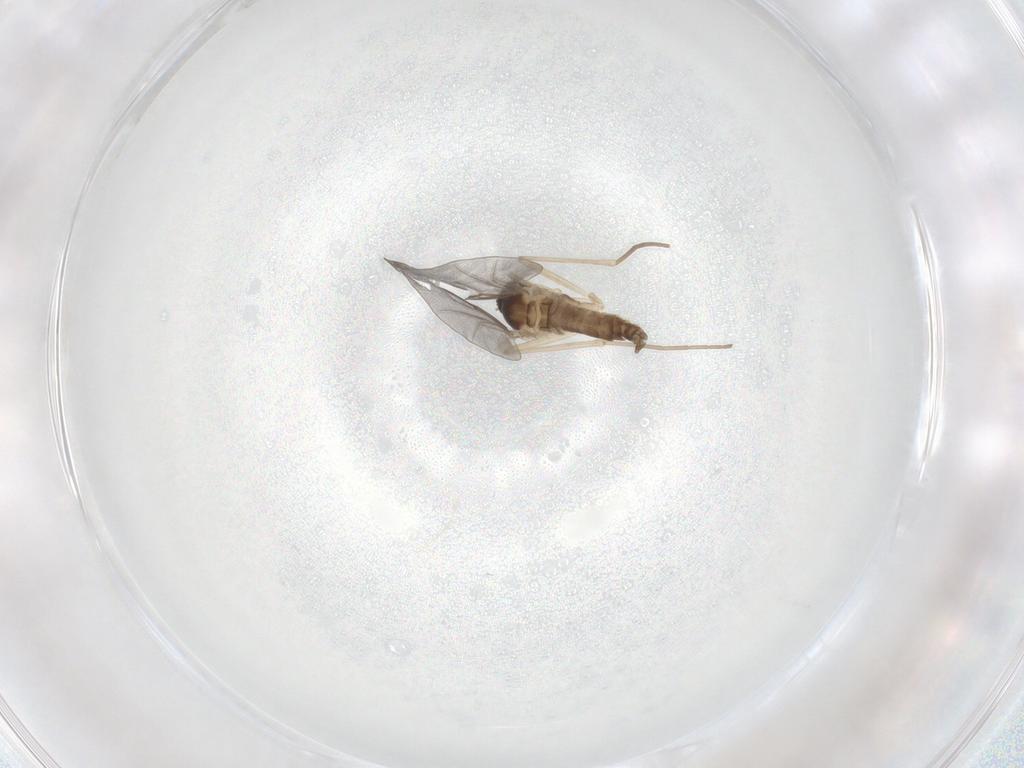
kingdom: Animalia
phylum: Arthropoda
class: Insecta
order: Diptera
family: Cecidomyiidae
